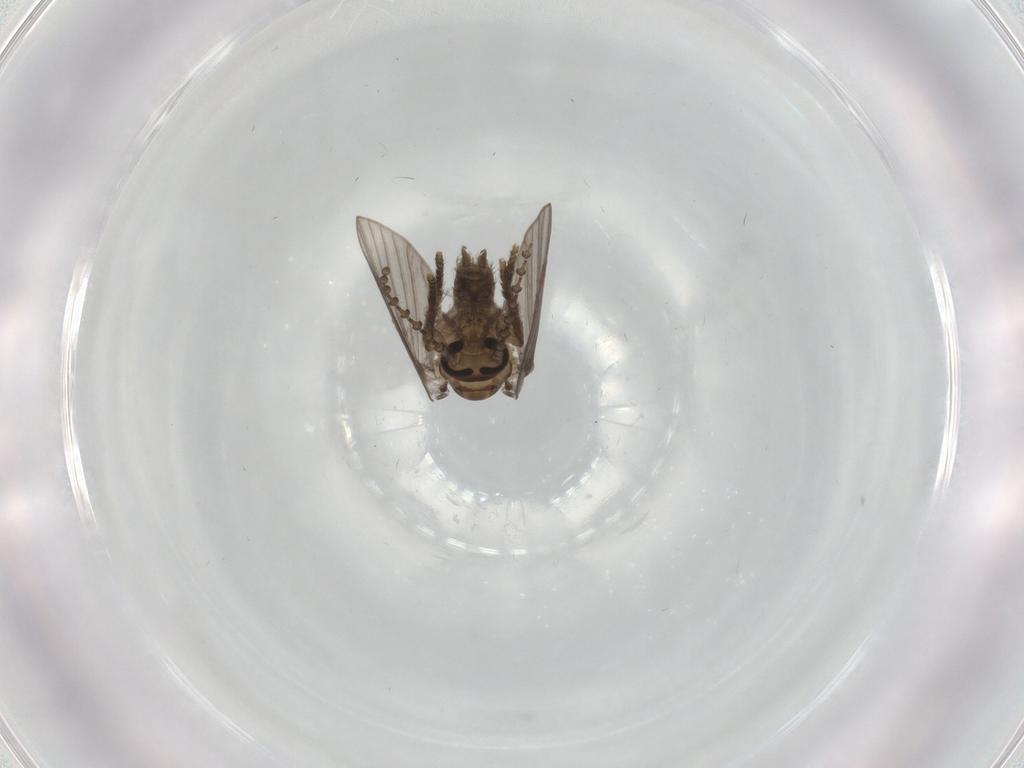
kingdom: Animalia
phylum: Arthropoda
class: Insecta
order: Diptera
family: Psychodidae
